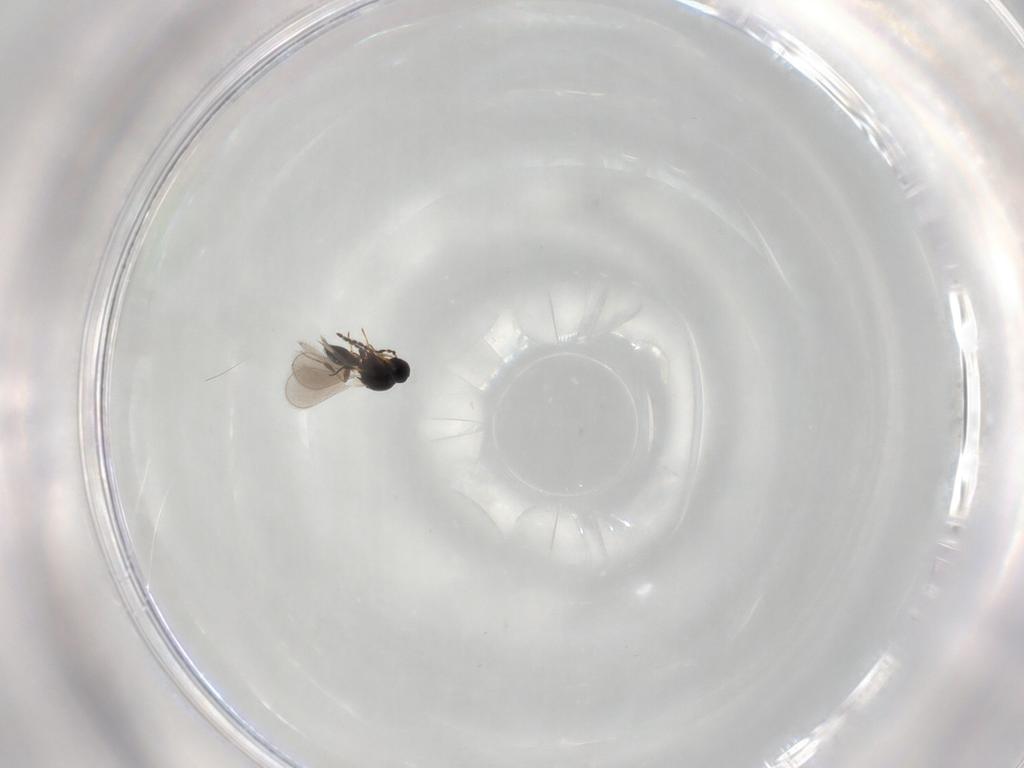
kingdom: Animalia
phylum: Arthropoda
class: Insecta
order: Hymenoptera
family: Platygastridae
